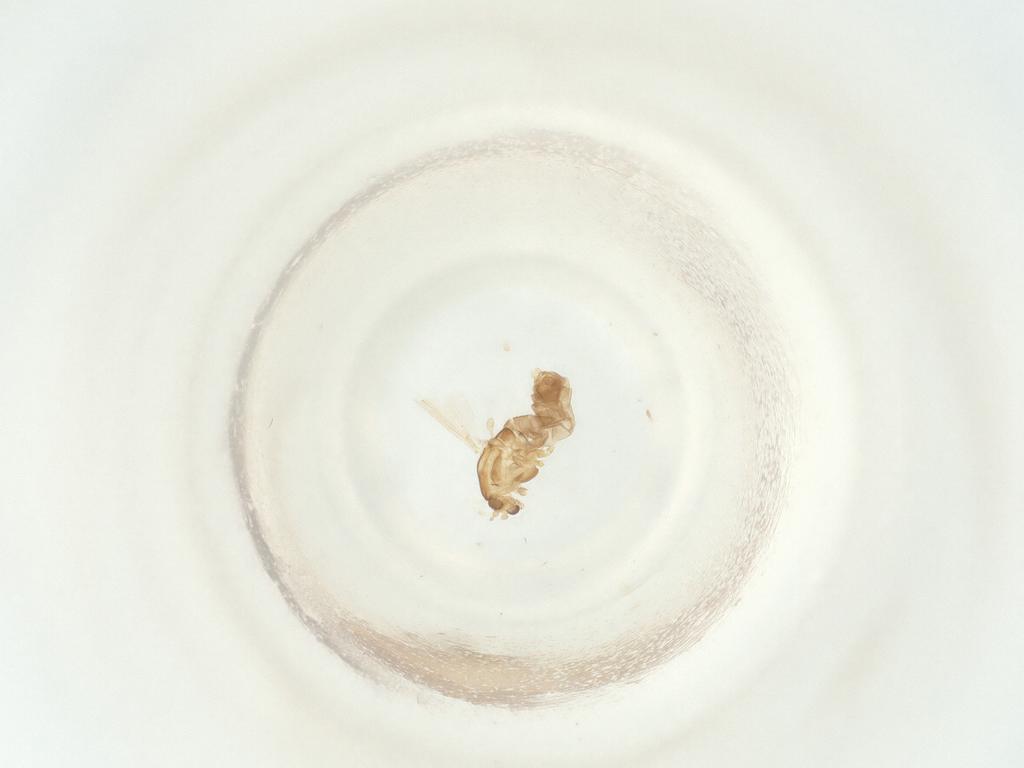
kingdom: Animalia
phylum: Arthropoda
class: Insecta
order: Diptera
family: Chironomidae
